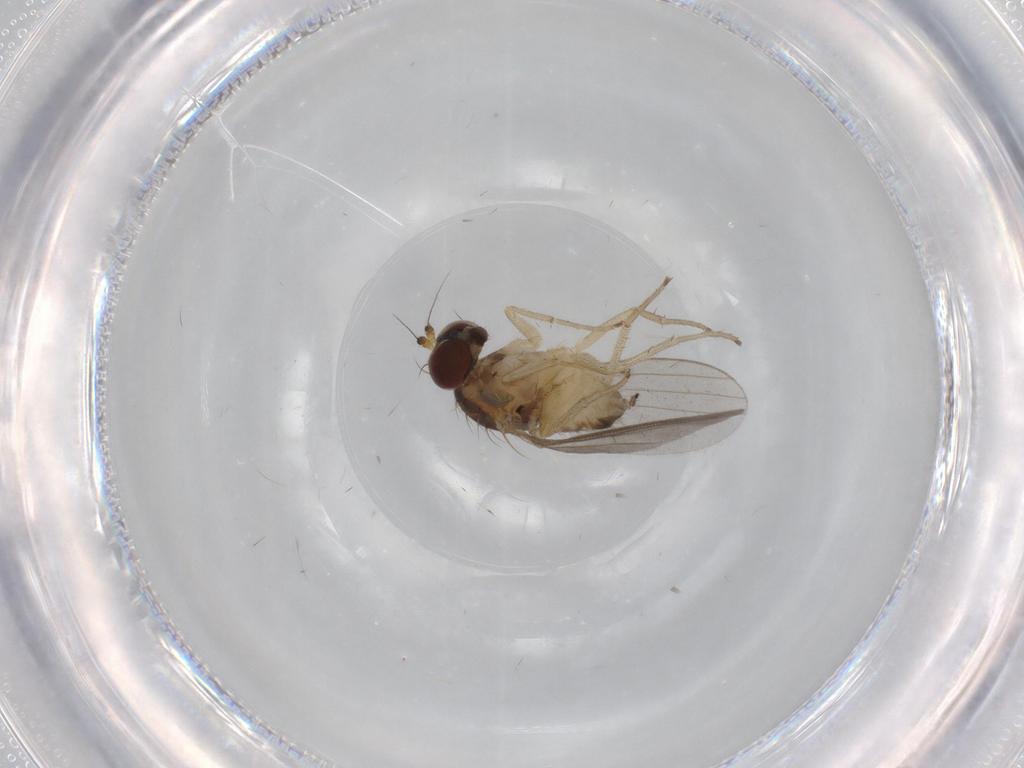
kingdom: Animalia
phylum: Arthropoda
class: Insecta
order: Diptera
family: Dolichopodidae
